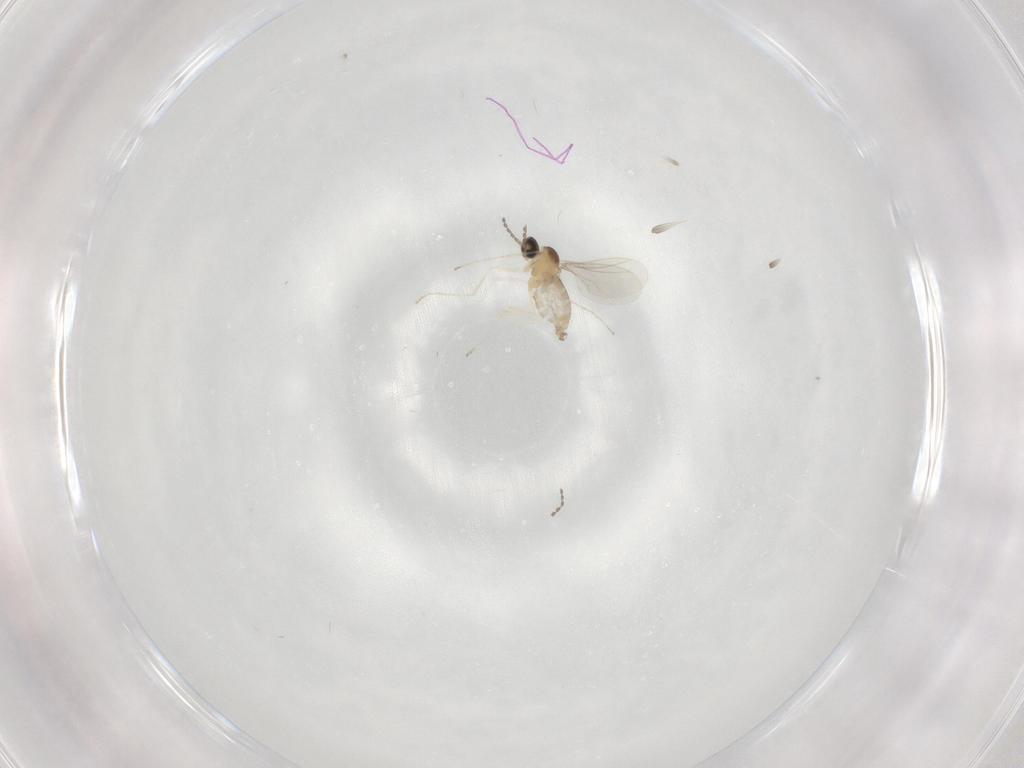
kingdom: Animalia
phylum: Arthropoda
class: Insecta
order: Diptera
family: Cecidomyiidae
